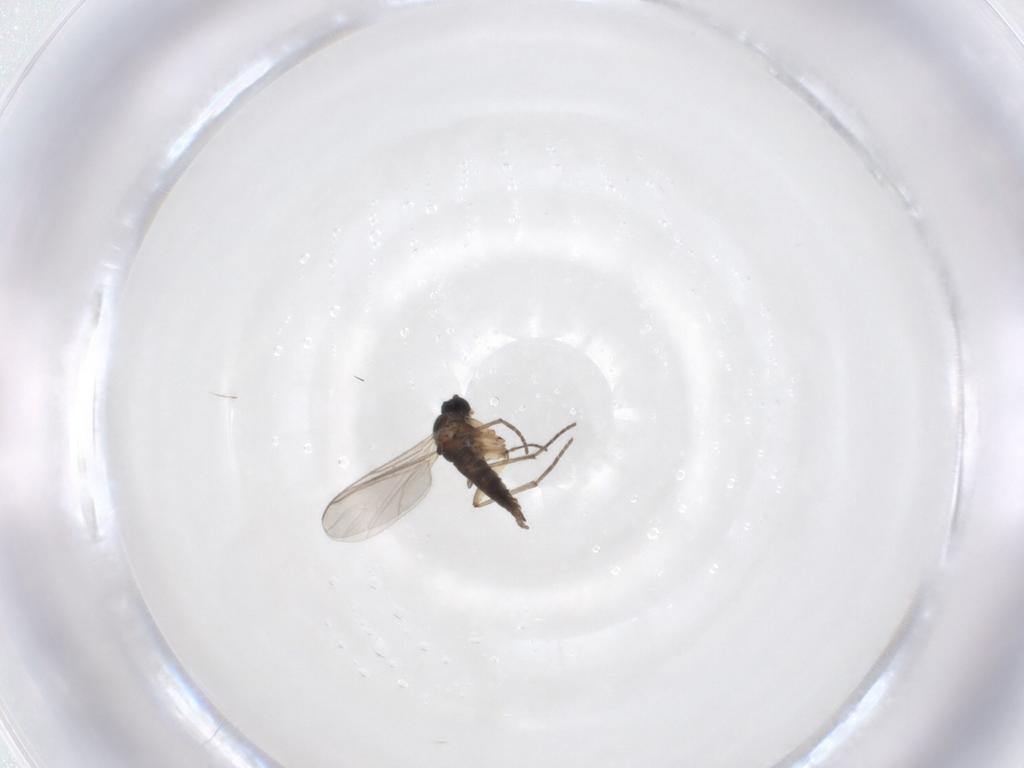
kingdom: Animalia
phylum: Arthropoda
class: Insecta
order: Diptera
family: Sciaridae
